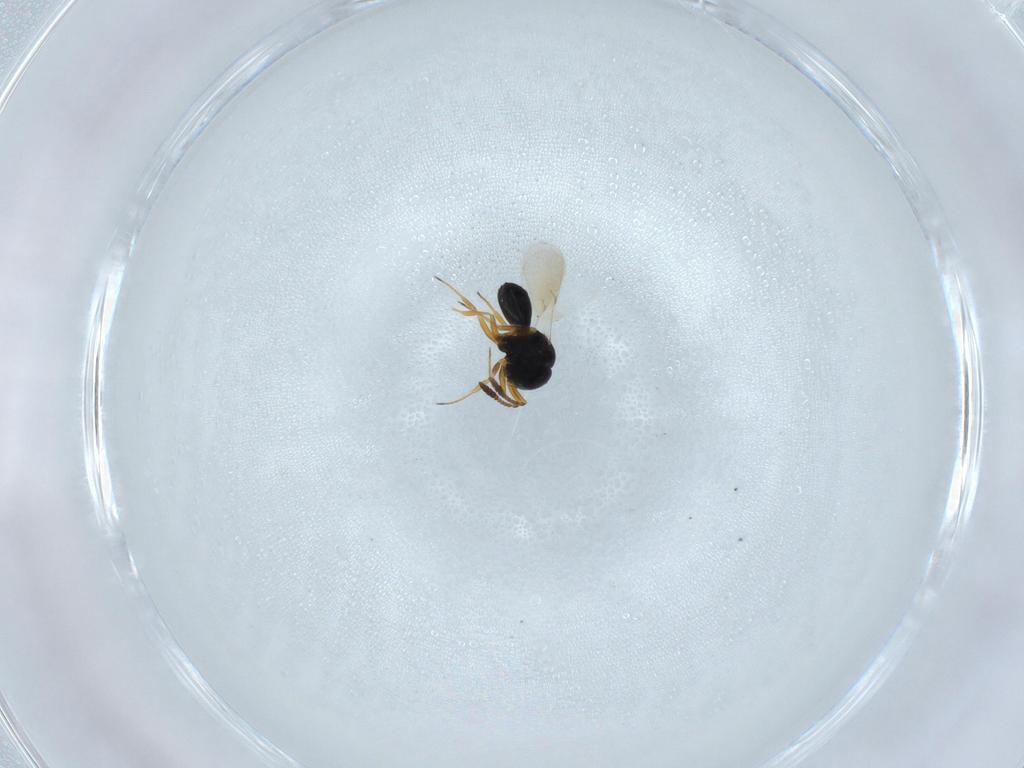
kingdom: Animalia
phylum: Arthropoda
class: Insecta
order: Hymenoptera
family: Scelionidae
